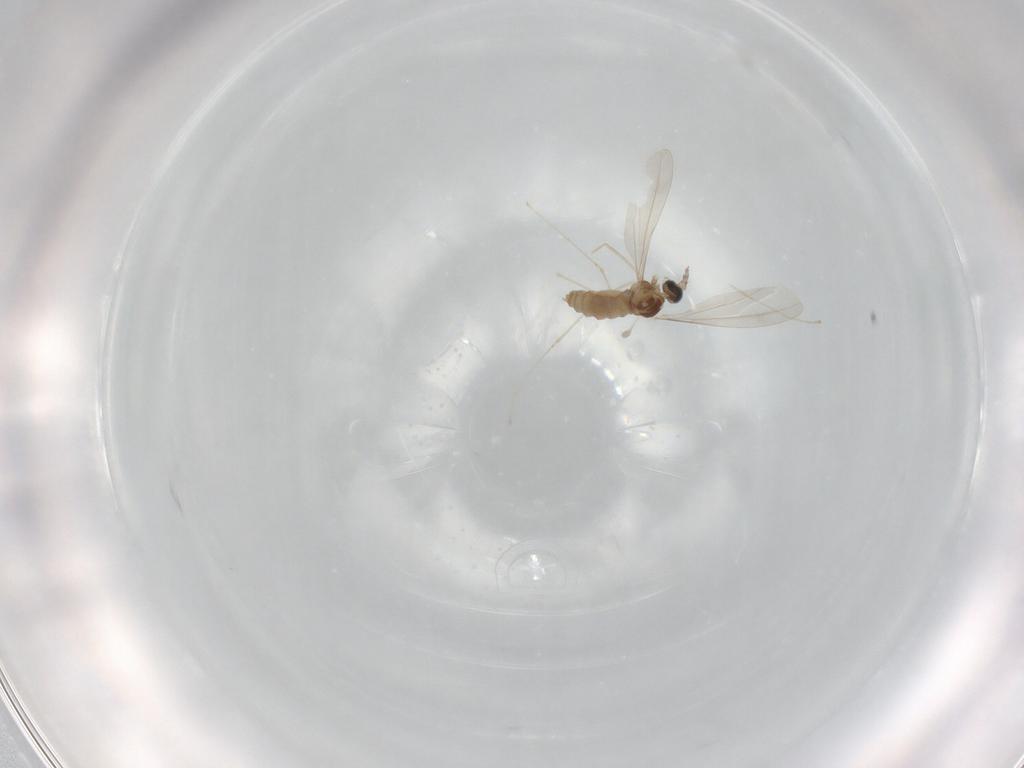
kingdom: Animalia
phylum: Arthropoda
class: Insecta
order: Diptera
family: Cecidomyiidae
